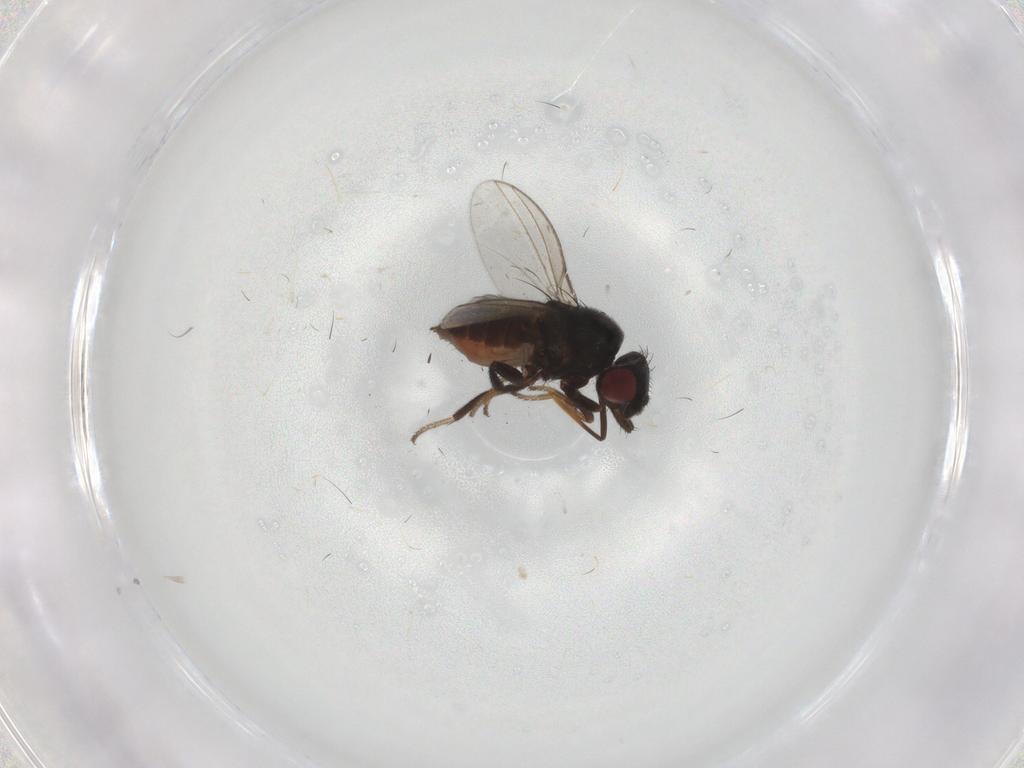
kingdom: Animalia
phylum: Arthropoda
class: Insecta
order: Diptera
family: Milichiidae
